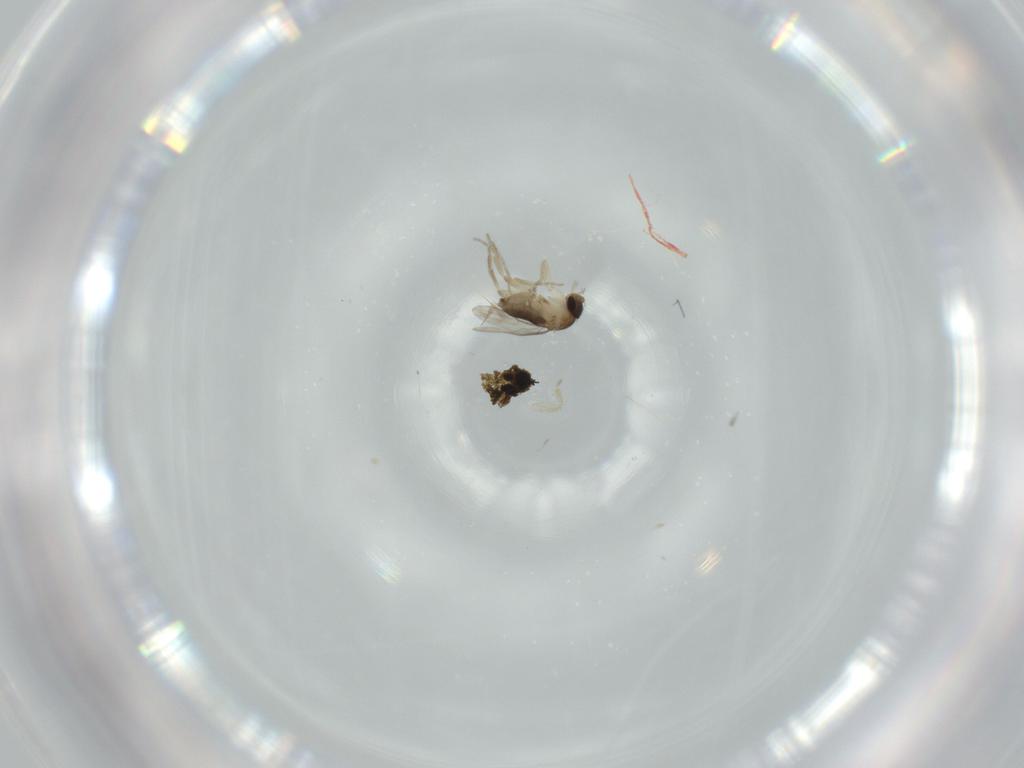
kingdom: Animalia
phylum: Arthropoda
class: Insecta
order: Diptera
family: Phoridae
